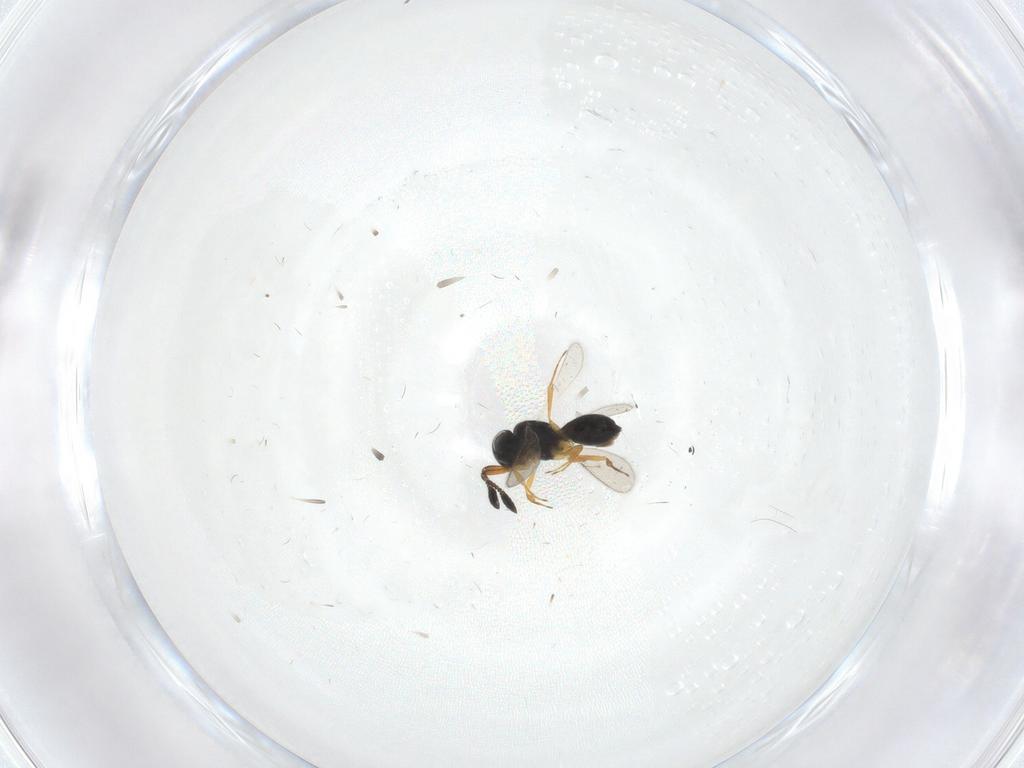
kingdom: Animalia
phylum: Arthropoda
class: Insecta
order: Hymenoptera
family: Scelionidae
